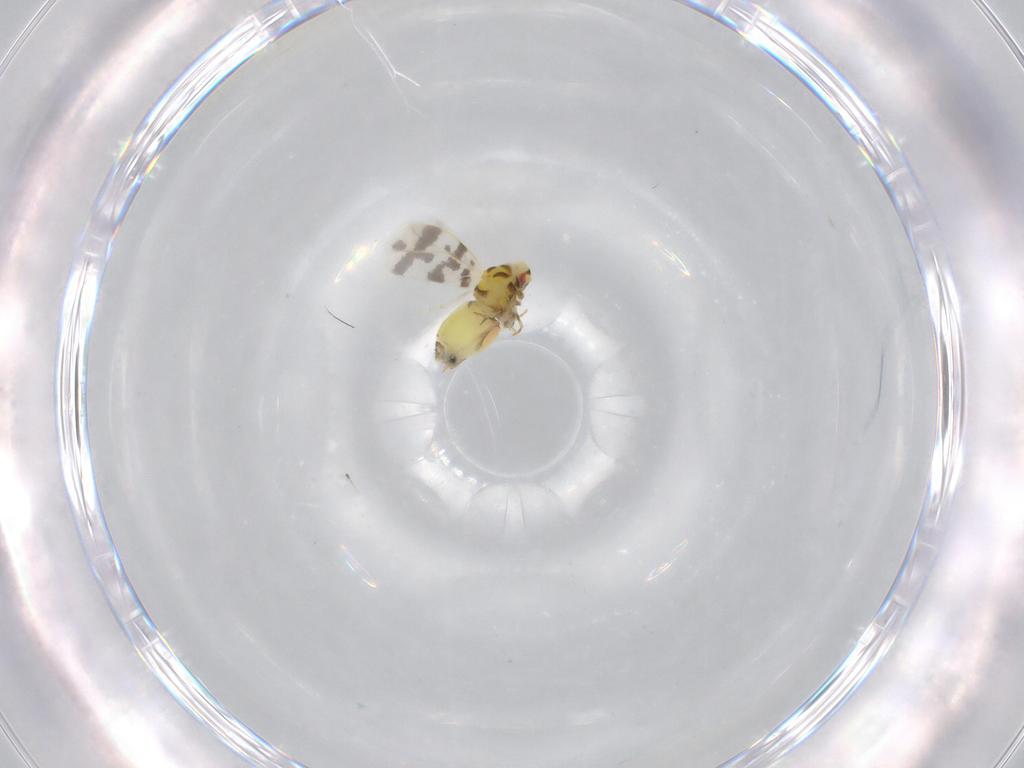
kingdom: Animalia
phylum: Arthropoda
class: Insecta
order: Hemiptera
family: Aleyrodidae
